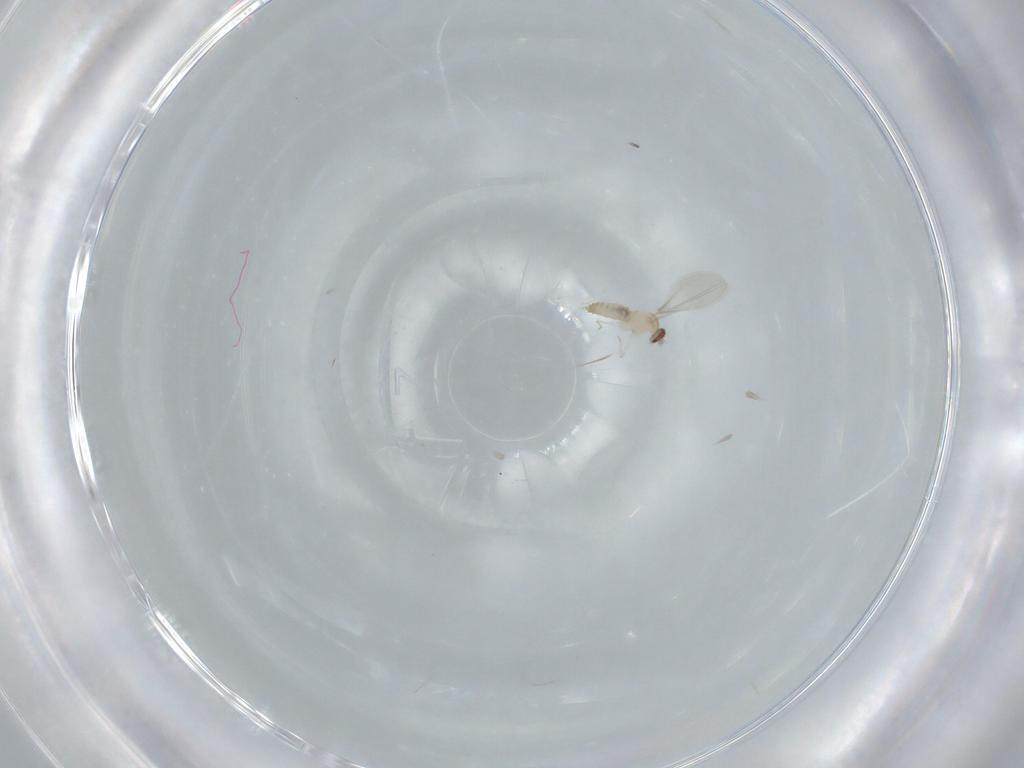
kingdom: Animalia
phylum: Arthropoda
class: Insecta
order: Diptera
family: Cecidomyiidae
